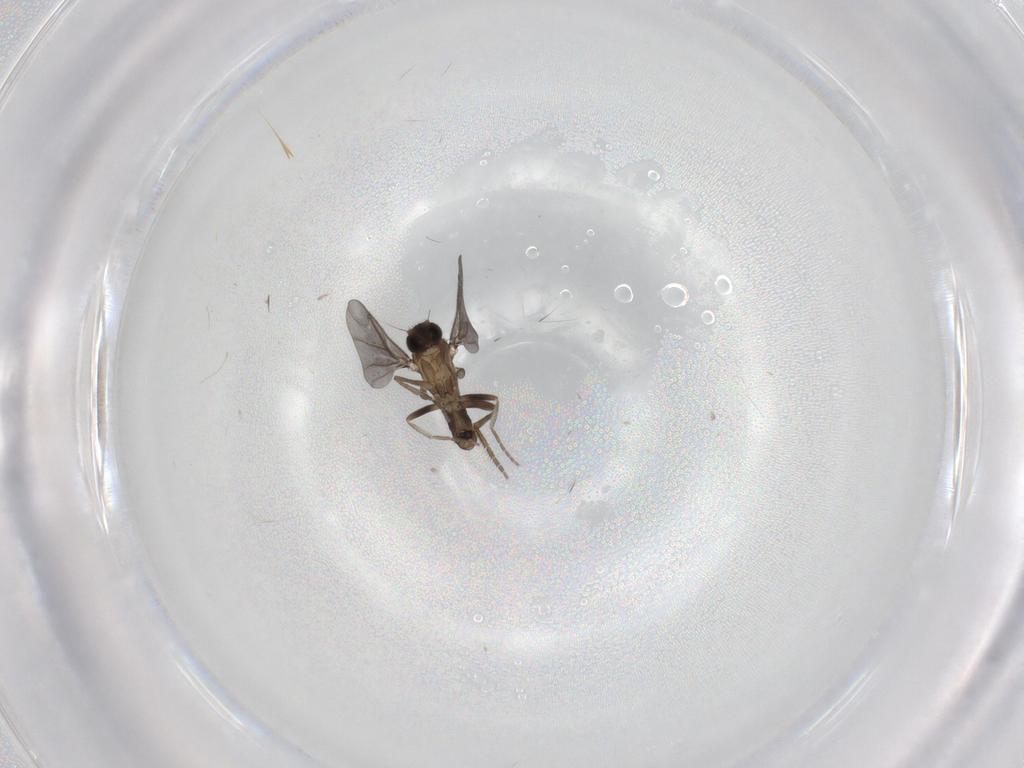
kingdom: Animalia
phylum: Arthropoda
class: Insecta
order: Diptera
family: Phoridae
